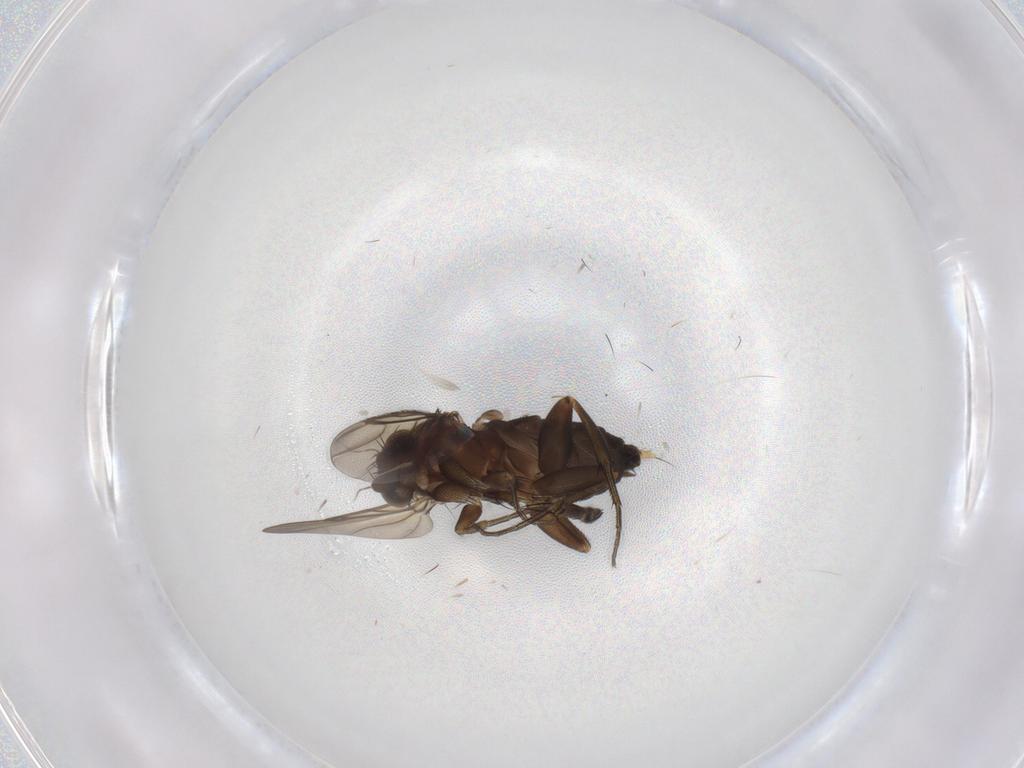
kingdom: Animalia
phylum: Arthropoda
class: Insecta
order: Diptera
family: Phoridae
